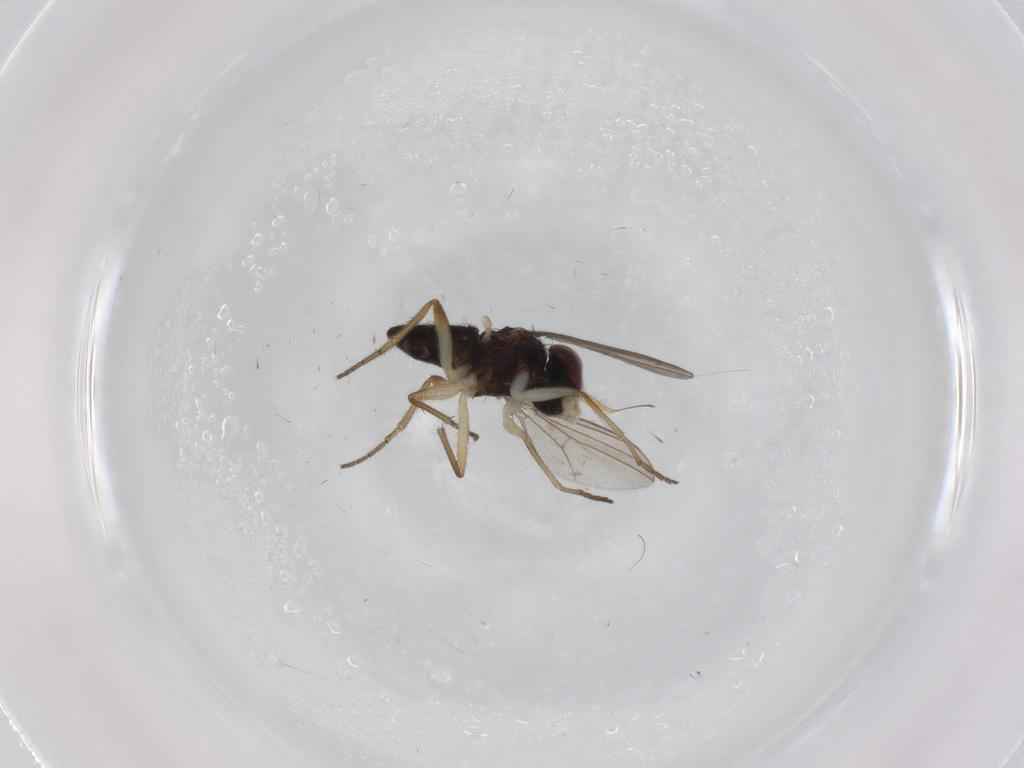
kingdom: Animalia
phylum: Arthropoda
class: Insecta
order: Diptera
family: Dolichopodidae
